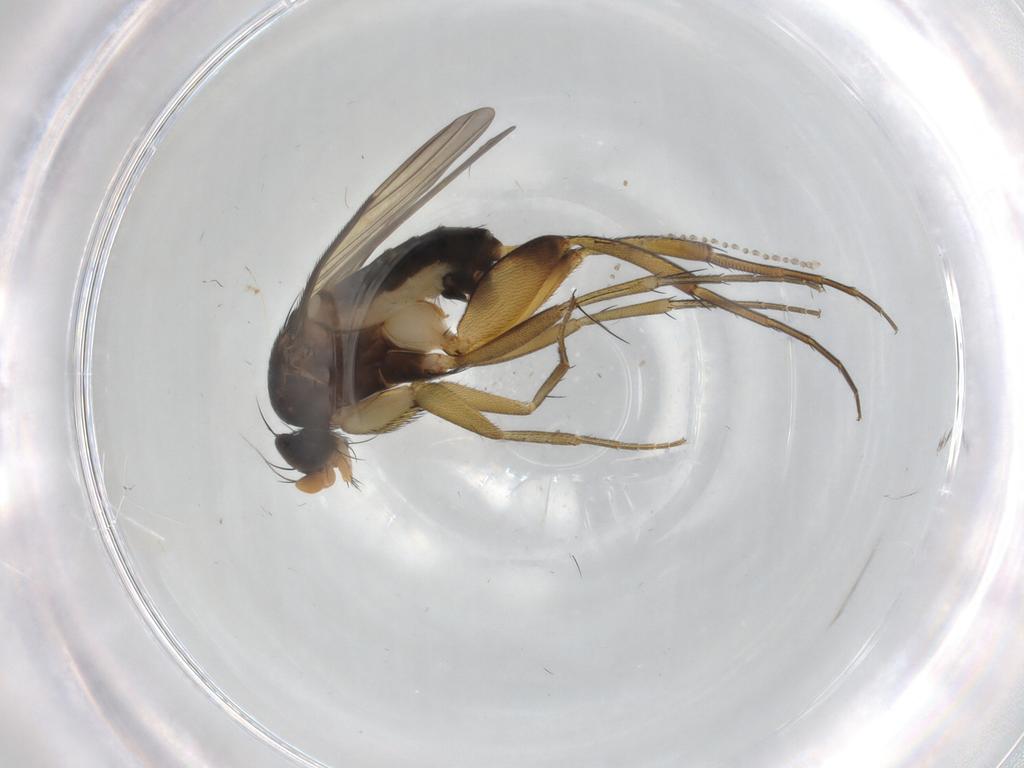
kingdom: Animalia
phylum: Arthropoda
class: Insecta
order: Diptera
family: Phoridae
